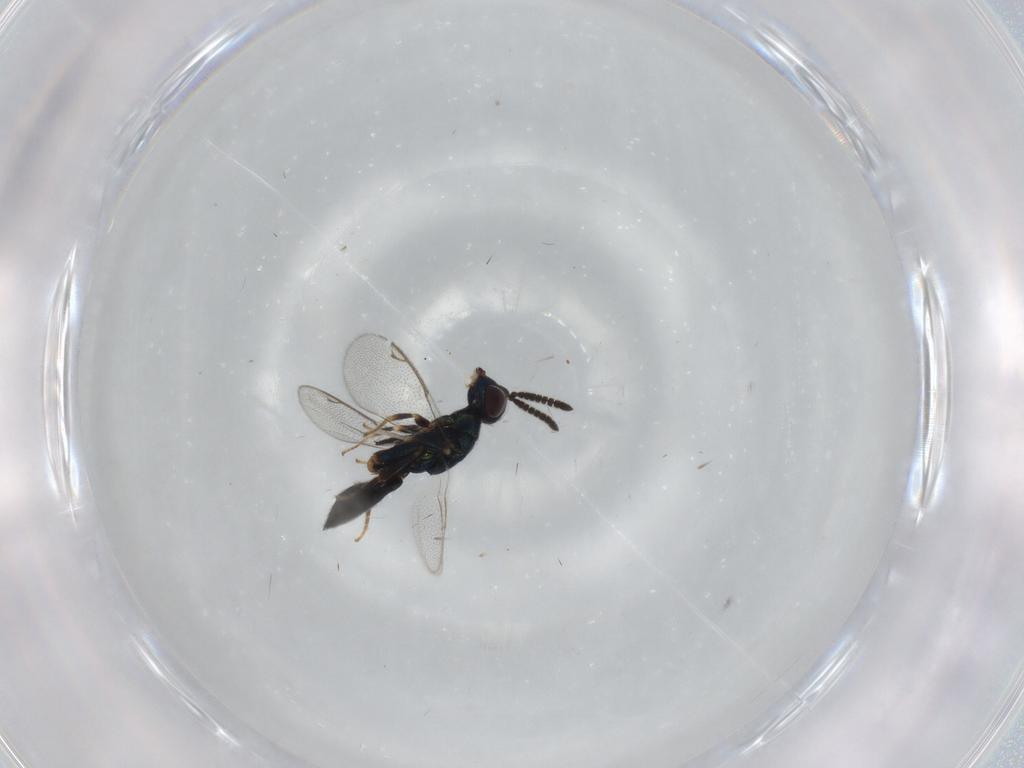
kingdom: Animalia
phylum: Arthropoda
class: Insecta
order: Hymenoptera
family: Cleonyminae
